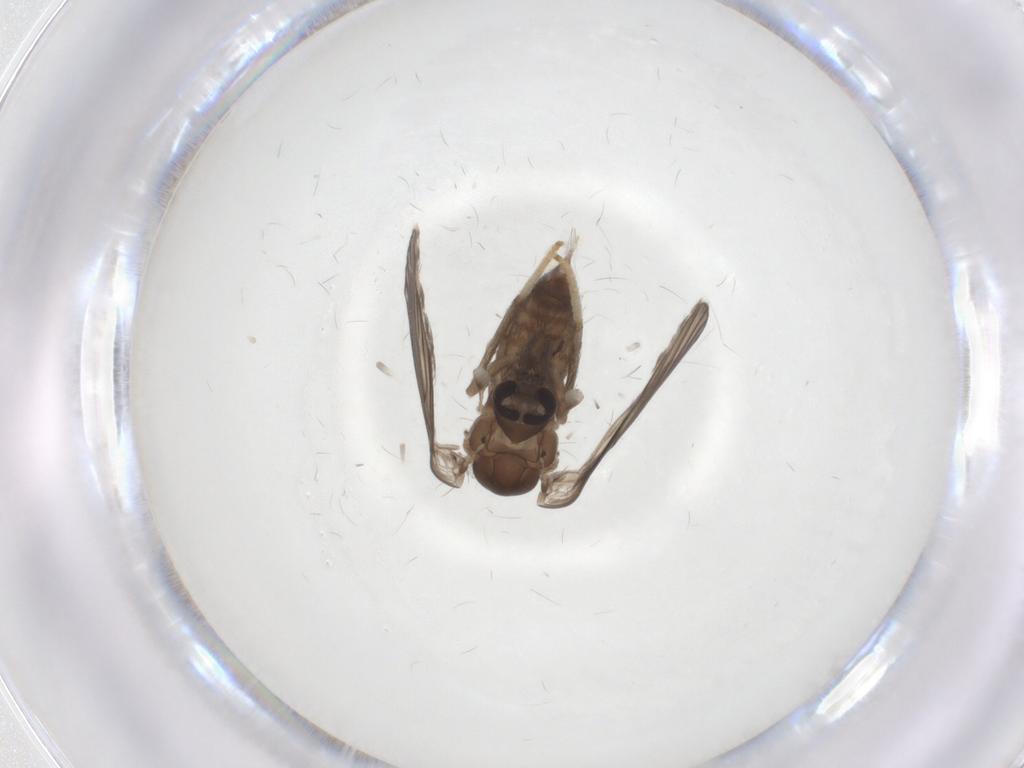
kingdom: Animalia
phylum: Arthropoda
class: Insecta
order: Diptera
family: Psychodidae
